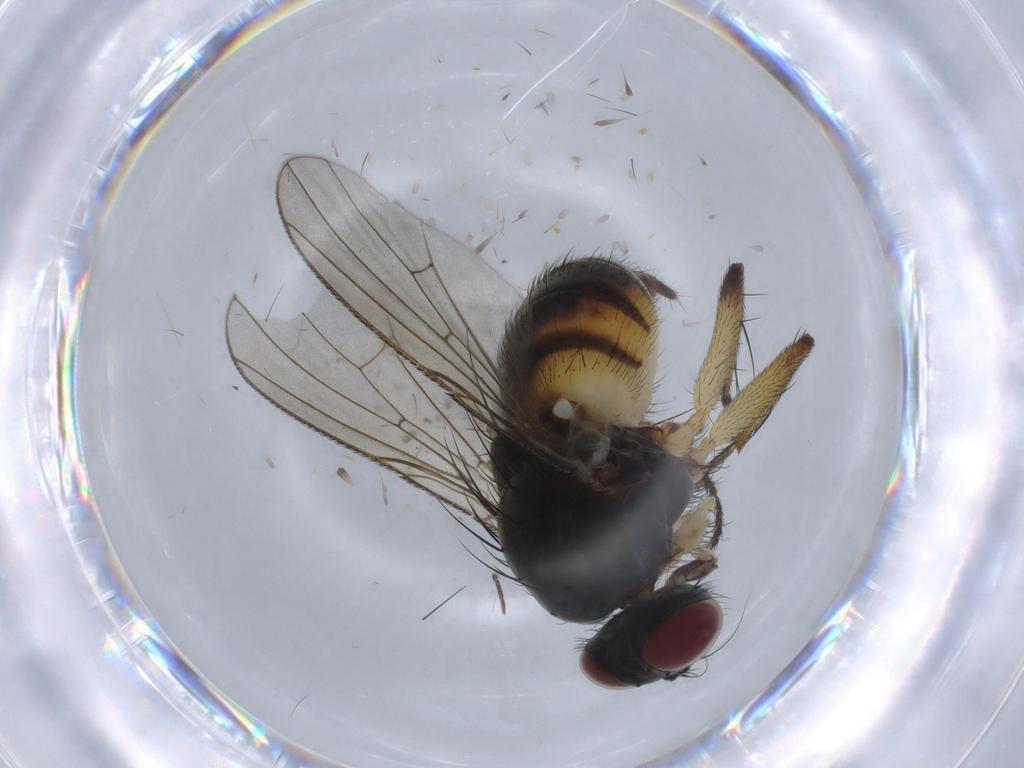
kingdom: Animalia
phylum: Arthropoda
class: Insecta
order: Diptera
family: Muscidae
